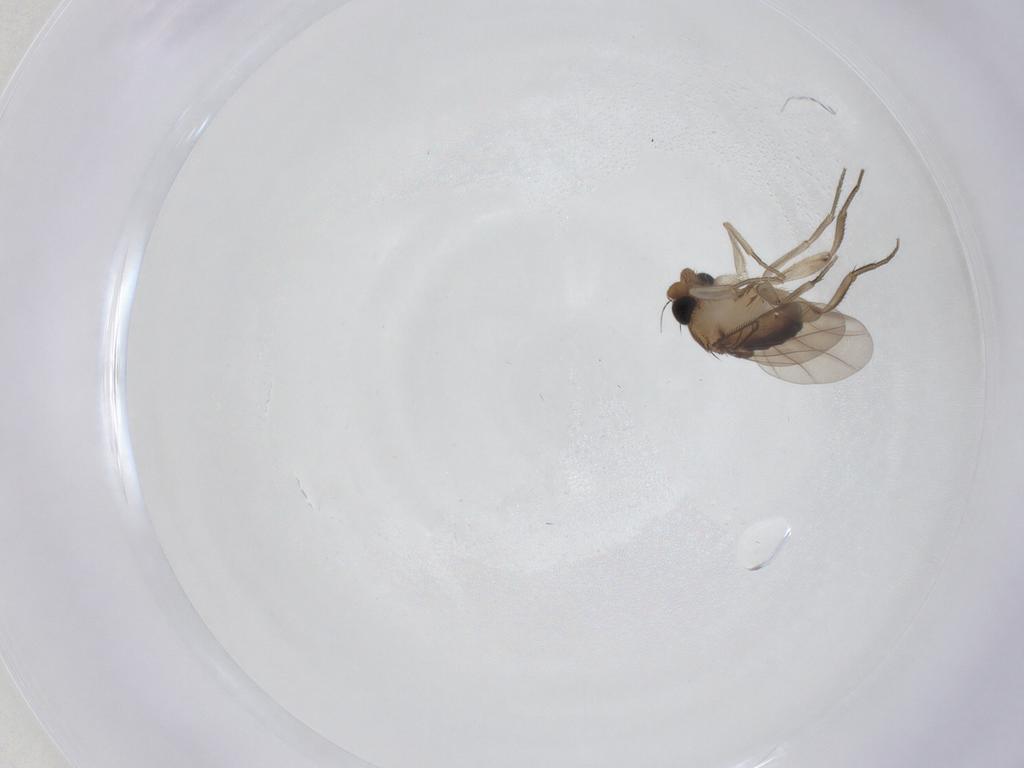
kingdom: Animalia
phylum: Arthropoda
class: Insecta
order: Diptera
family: Phoridae
